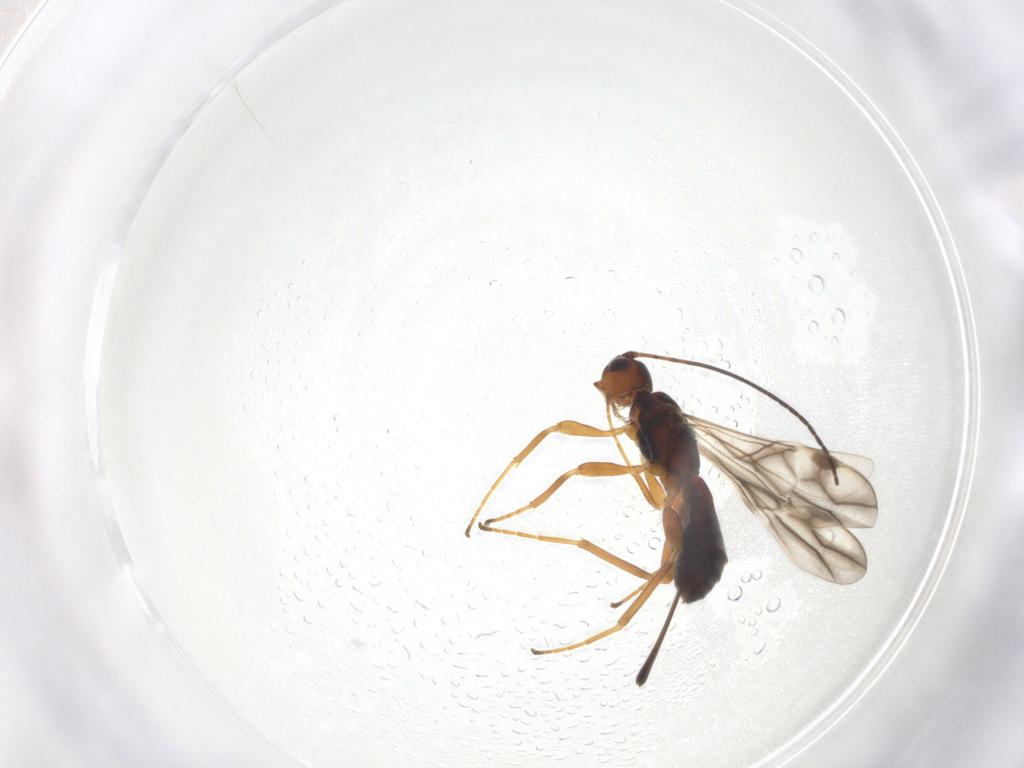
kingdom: Animalia
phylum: Arthropoda
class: Insecta
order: Hymenoptera
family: Braconidae
